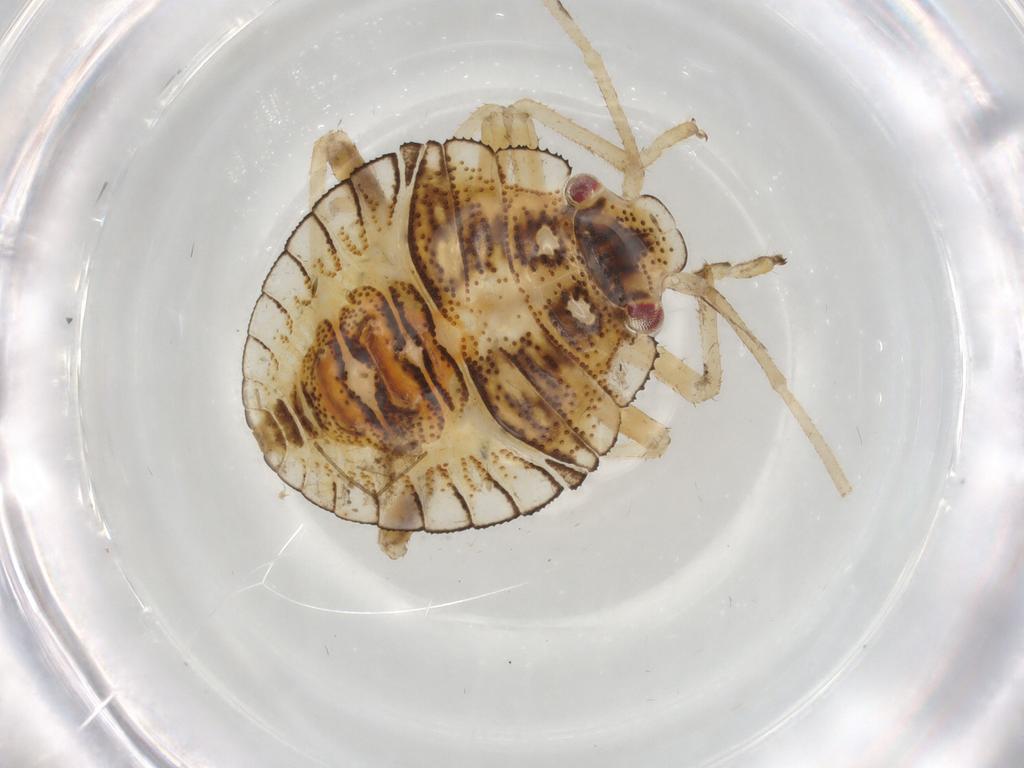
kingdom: Animalia
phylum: Arthropoda
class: Insecta
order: Hemiptera
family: Pentatomidae
